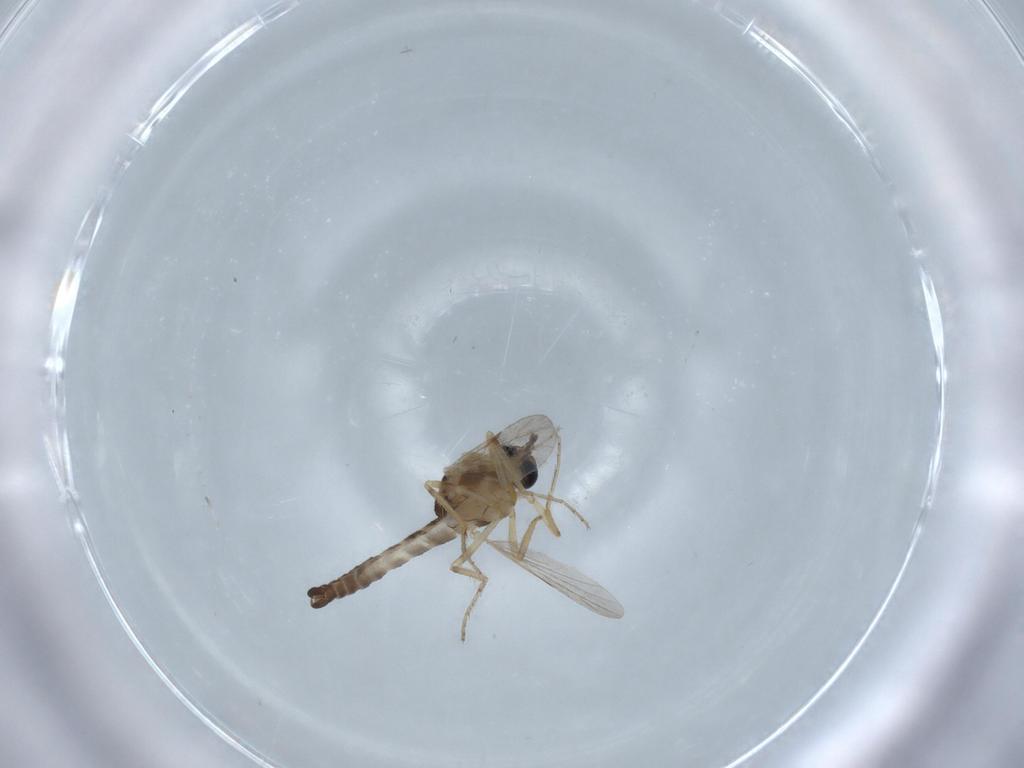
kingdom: Animalia
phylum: Arthropoda
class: Insecta
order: Diptera
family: Ceratopogonidae
